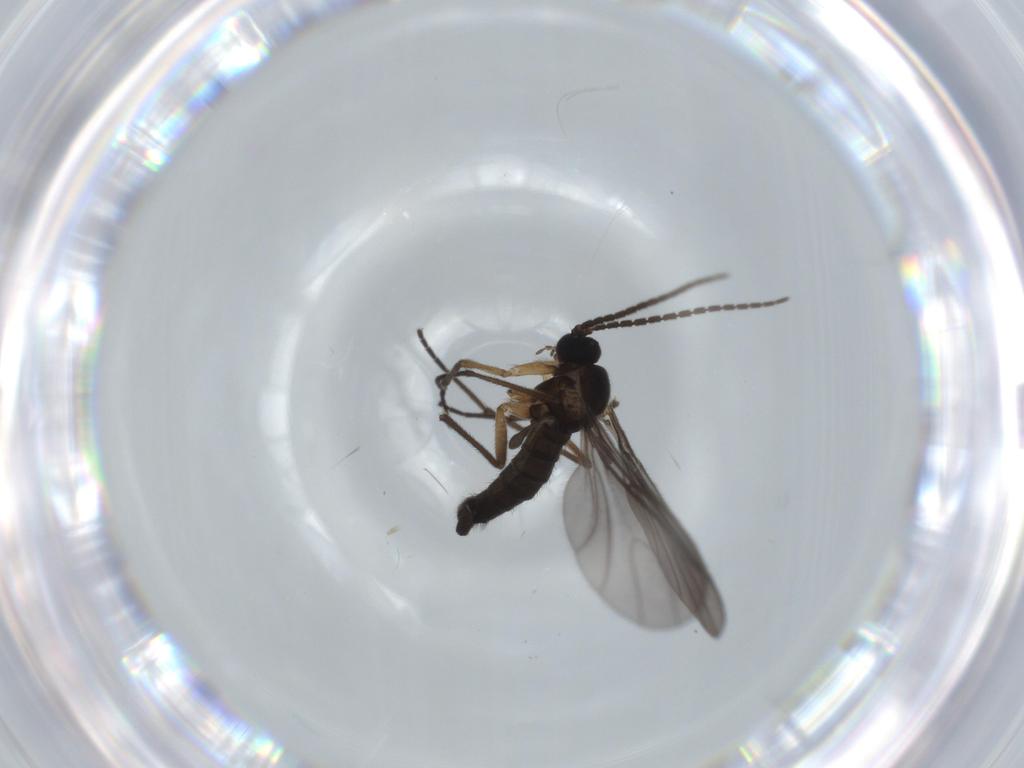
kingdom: Animalia
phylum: Arthropoda
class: Insecta
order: Diptera
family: Sciaridae
